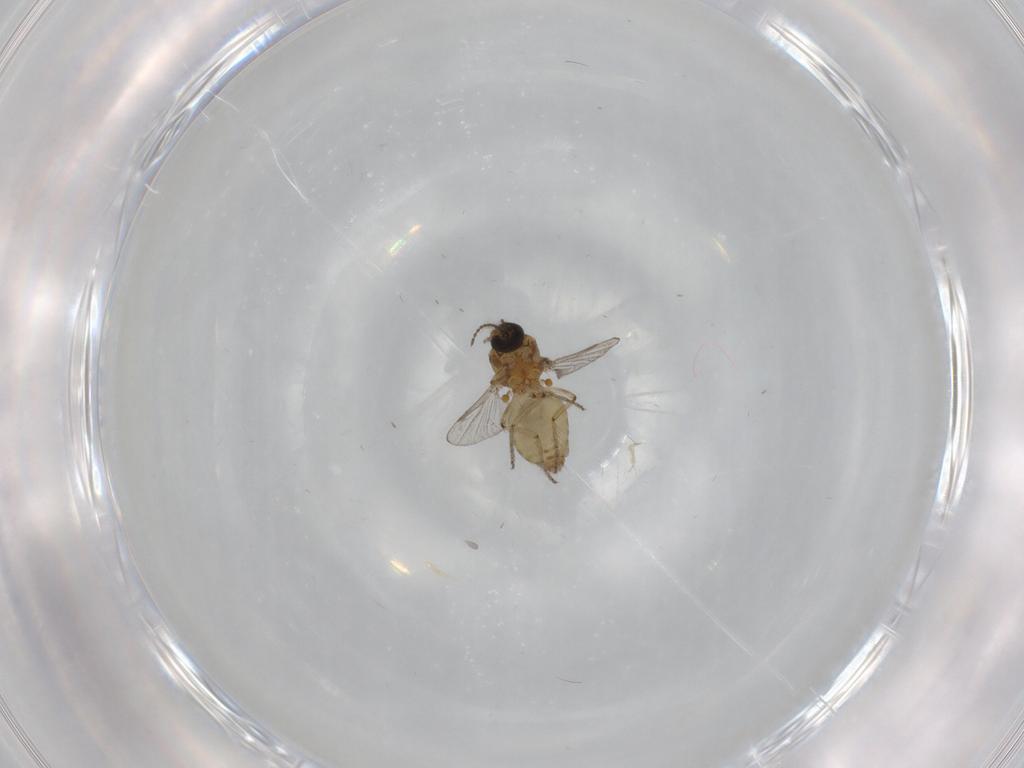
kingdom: Animalia
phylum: Arthropoda
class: Insecta
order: Diptera
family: Ceratopogonidae
